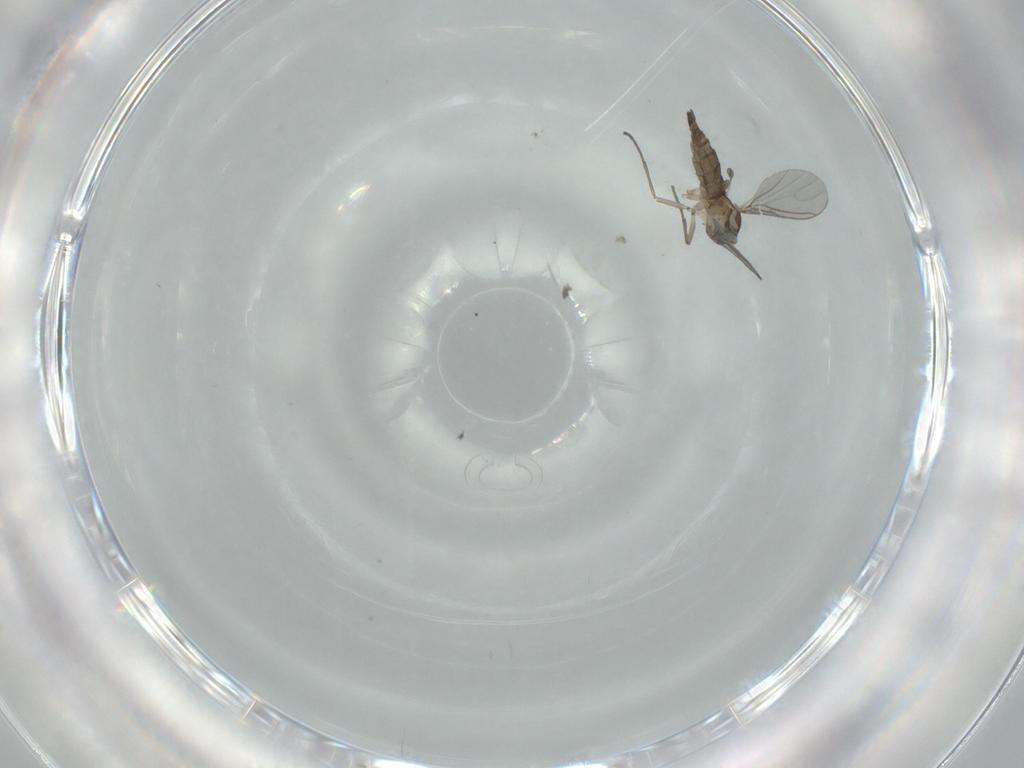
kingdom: Animalia
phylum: Arthropoda
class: Insecta
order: Diptera
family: Sciaridae
